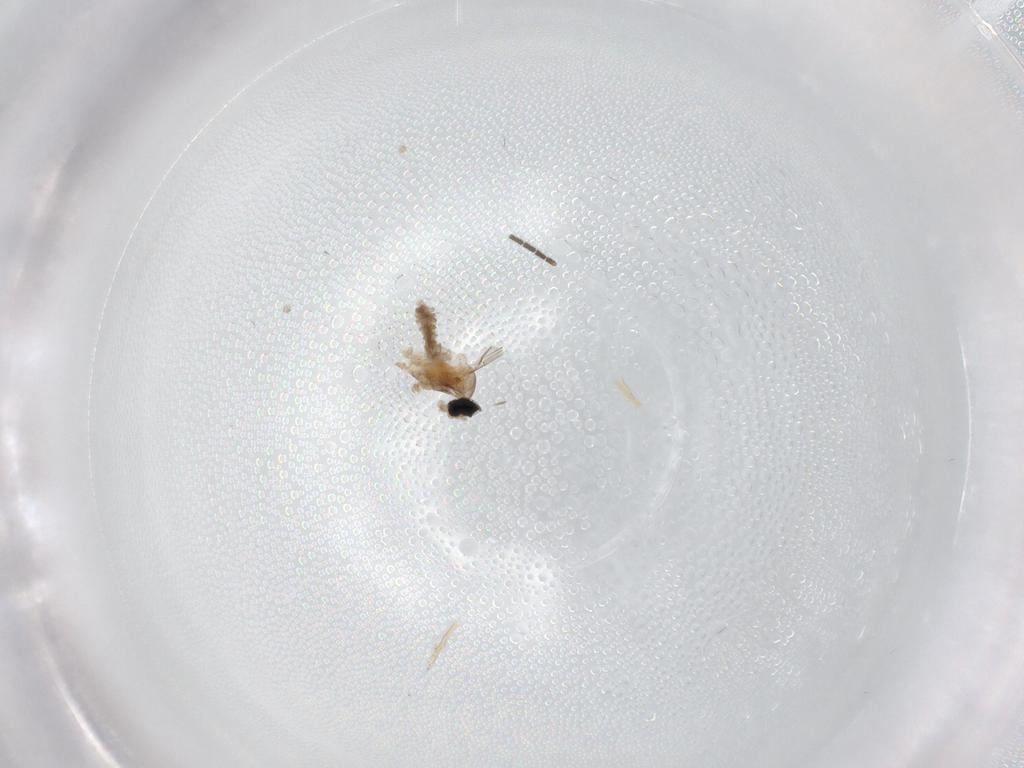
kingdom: Animalia
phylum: Arthropoda
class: Insecta
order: Diptera
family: Cecidomyiidae
